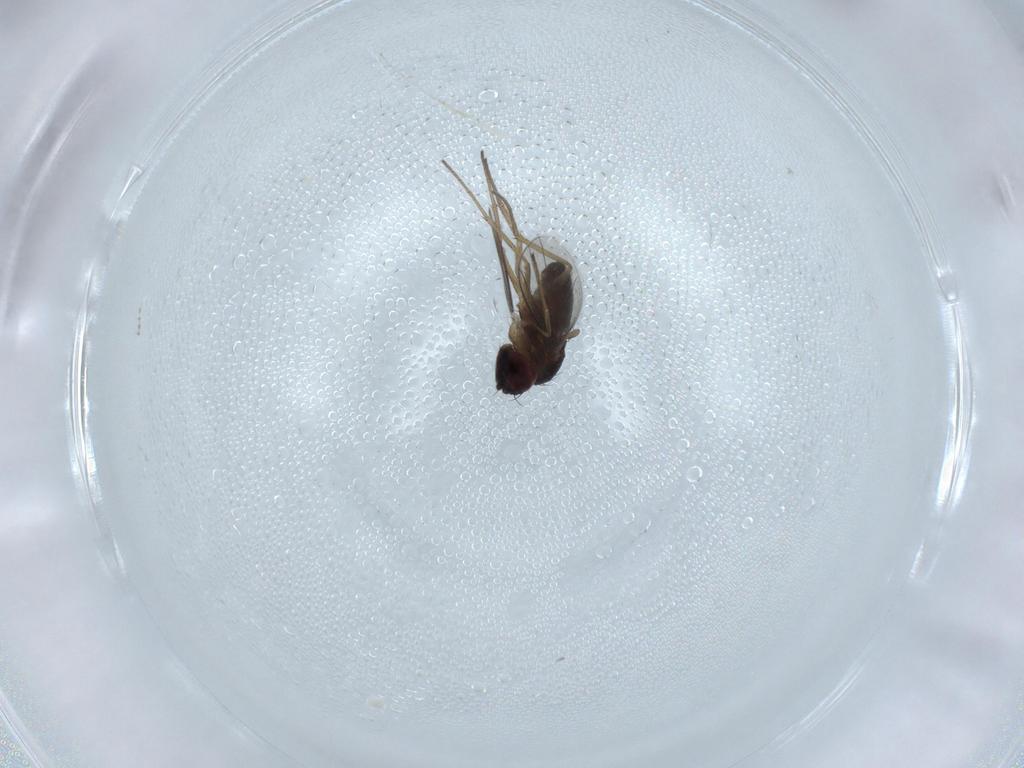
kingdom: Animalia
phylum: Arthropoda
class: Insecta
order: Diptera
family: Dolichopodidae
